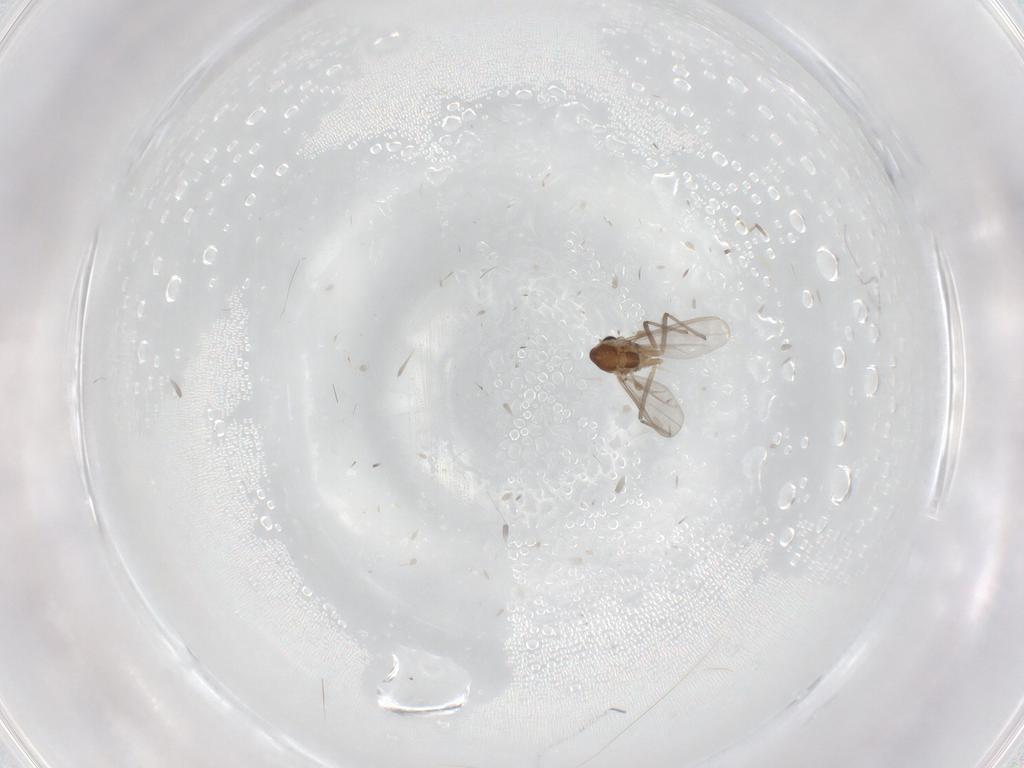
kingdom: Animalia
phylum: Arthropoda
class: Insecta
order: Diptera
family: Chironomidae
